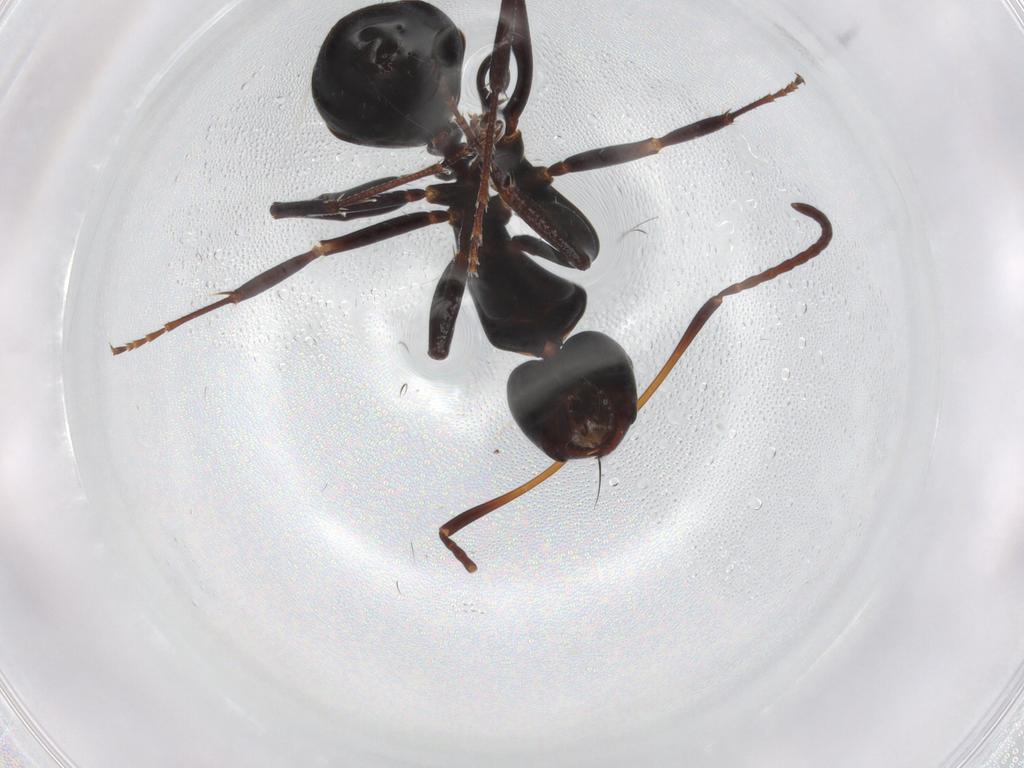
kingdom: Animalia
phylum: Arthropoda
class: Insecta
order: Hymenoptera
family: Formicidae
